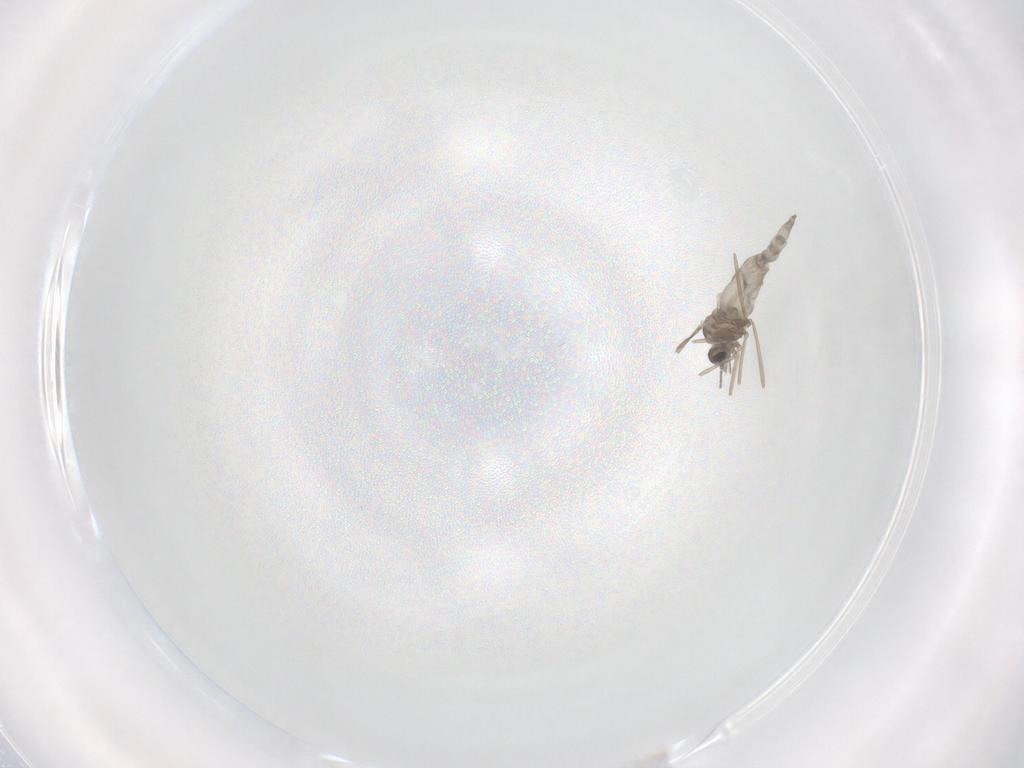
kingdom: Animalia
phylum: Arthropoda
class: Insecta
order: Diptera
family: Cecidomyiidae
